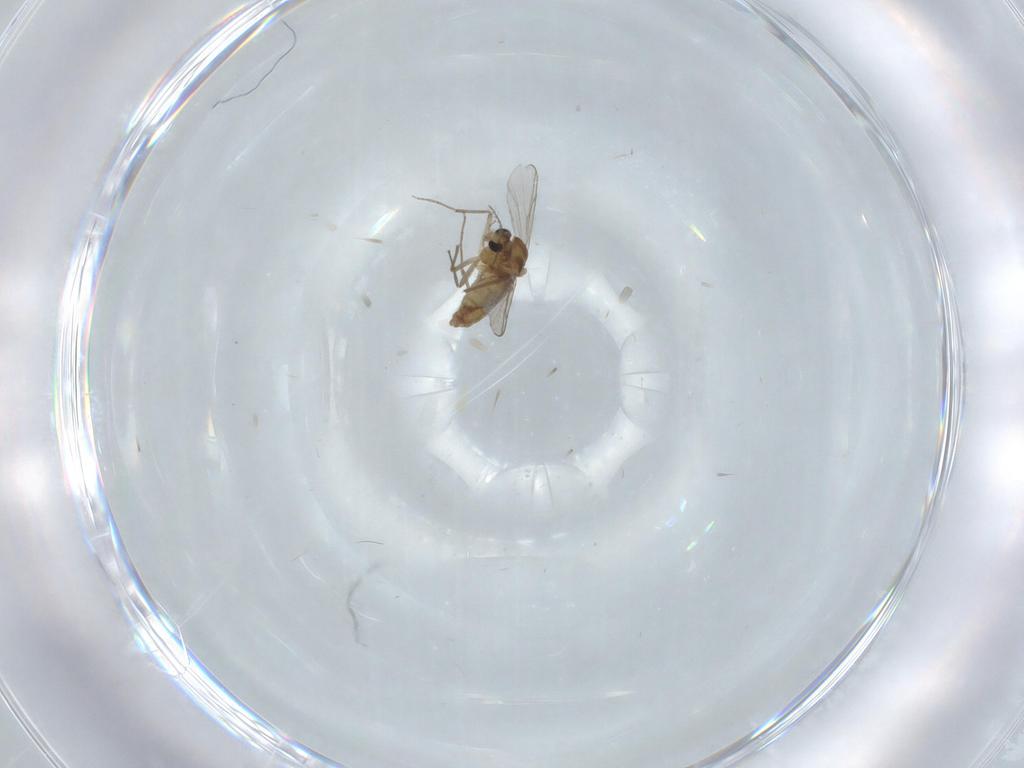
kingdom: Animalia
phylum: Arthropoda
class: Insecta
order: Diptera
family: Chironomidae
